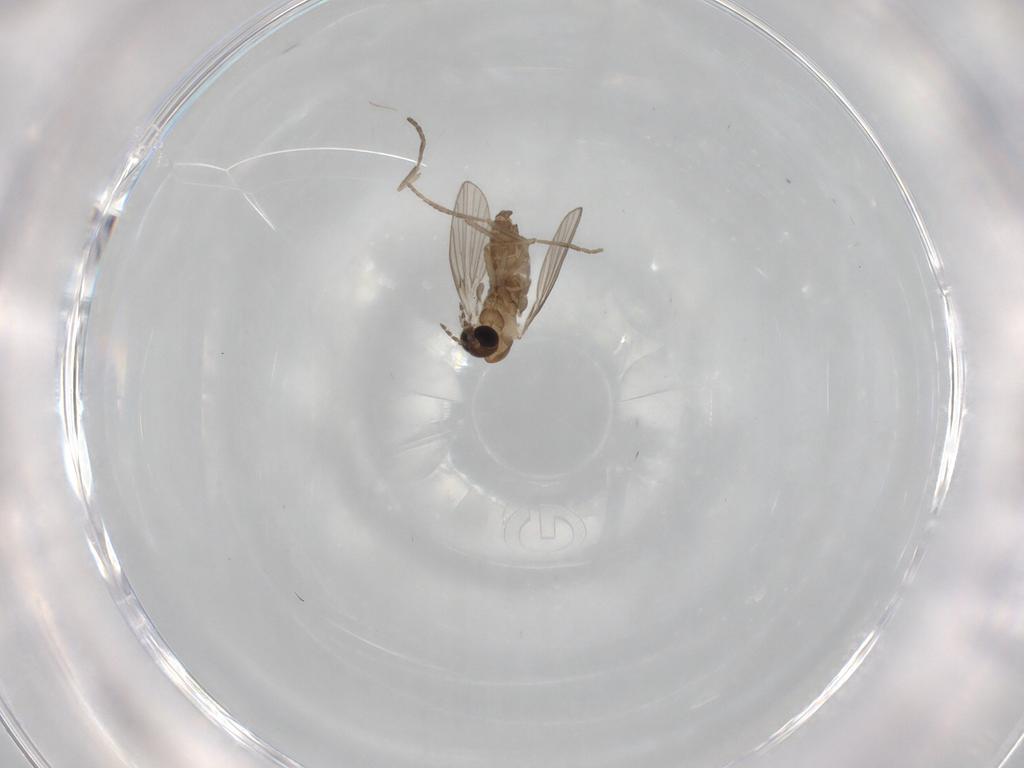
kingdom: Animalia
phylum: Arthropoda
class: Insecta
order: Diptera
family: Psychodidae
